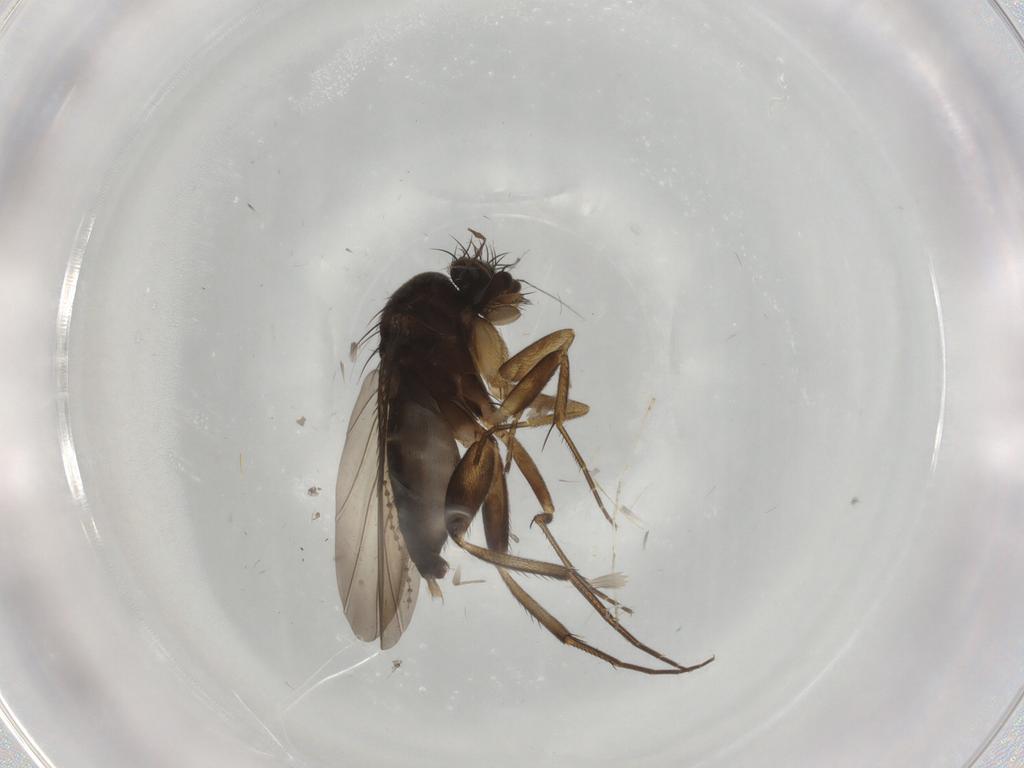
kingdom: Animalia
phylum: Arthropoda
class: Insecta
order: Diptera
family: Phoridae
